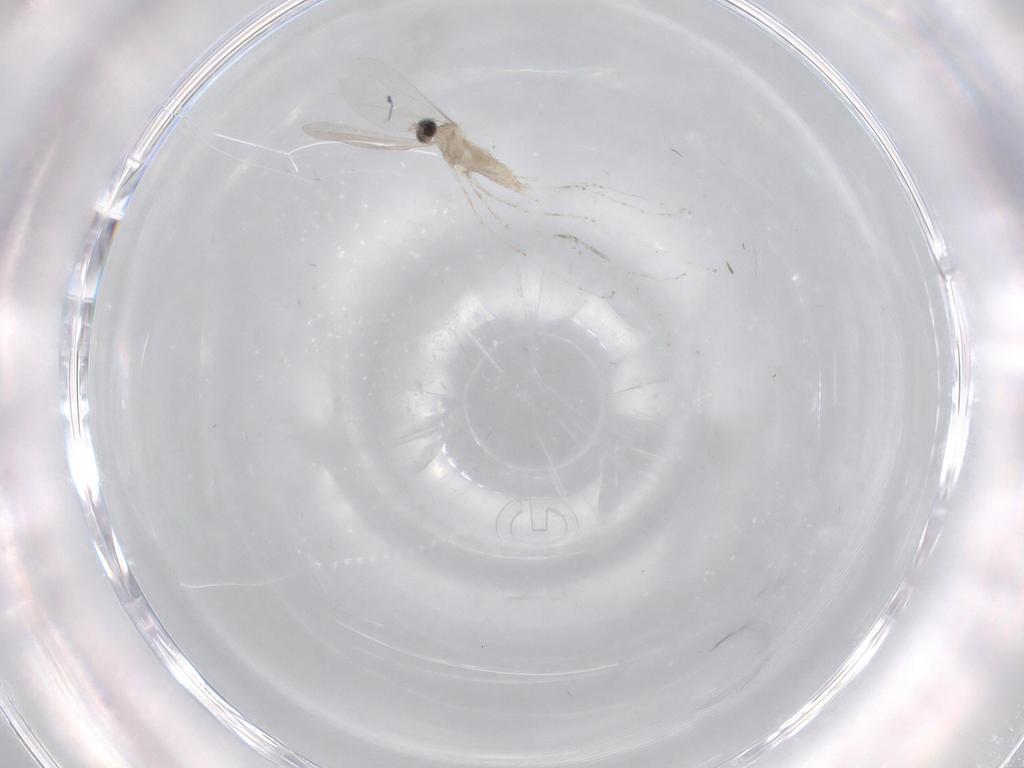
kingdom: Animalia
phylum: Arthropoda
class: Insecta
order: Diptera
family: Cecidomyiidae
